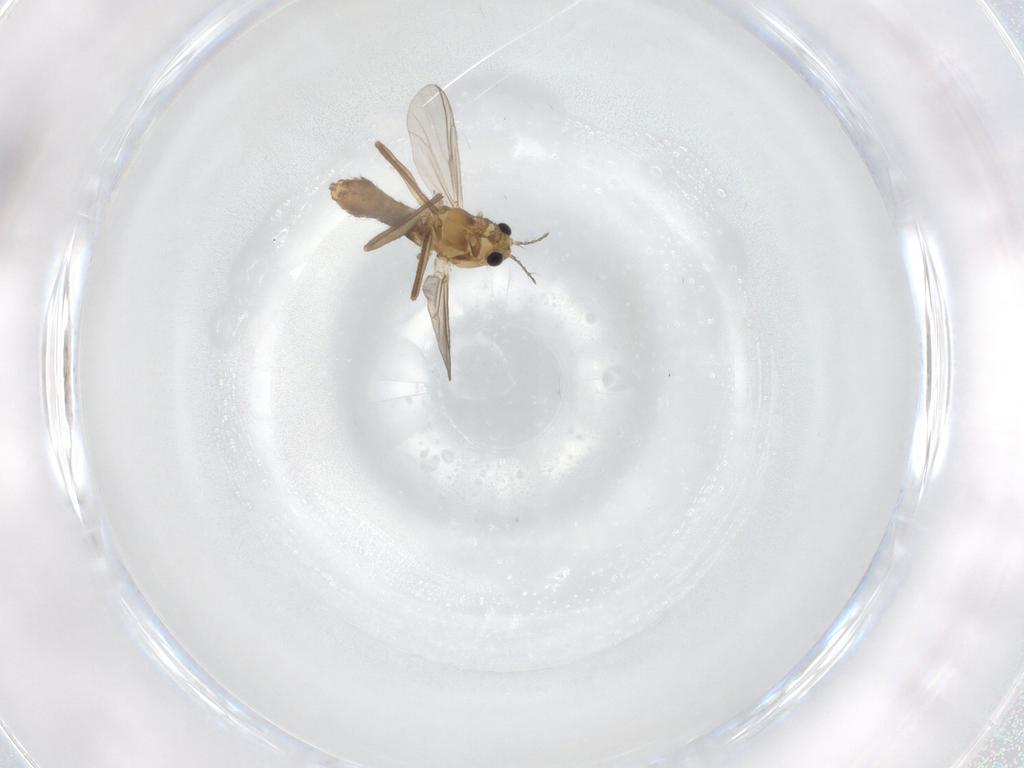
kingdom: Animalia
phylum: Arthropoda
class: Insecta
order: Diptera
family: Chironomidae
